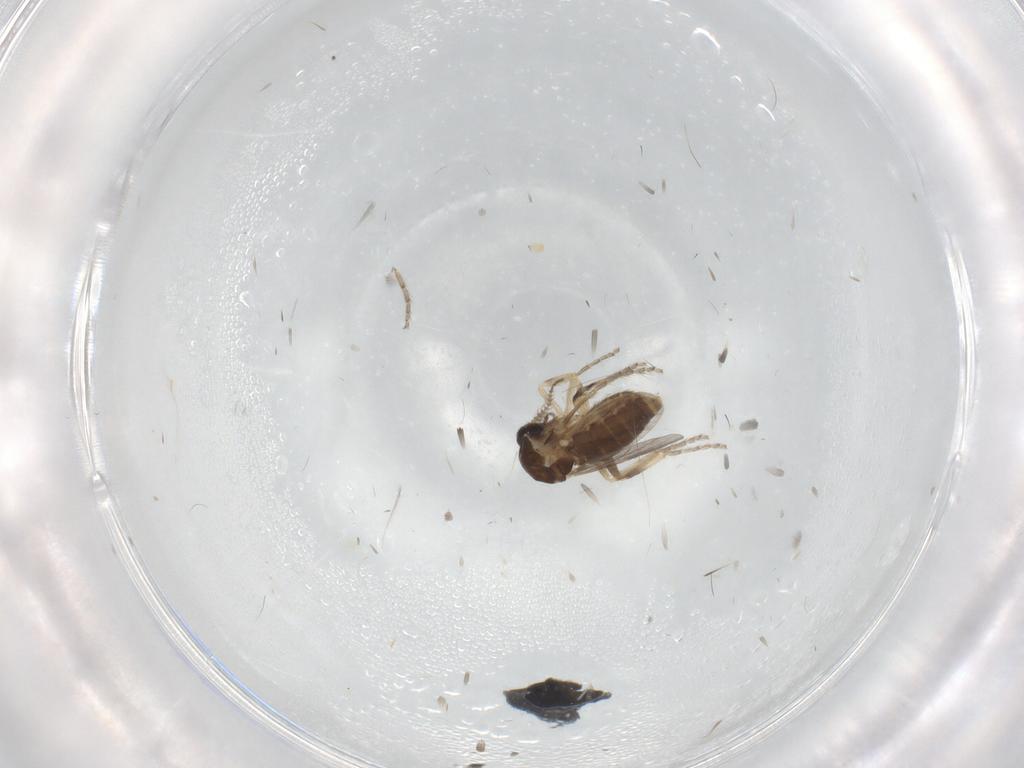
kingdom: Animalia
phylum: Arthropoda
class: Insecta
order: Diptera
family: Ceratopogonidae
